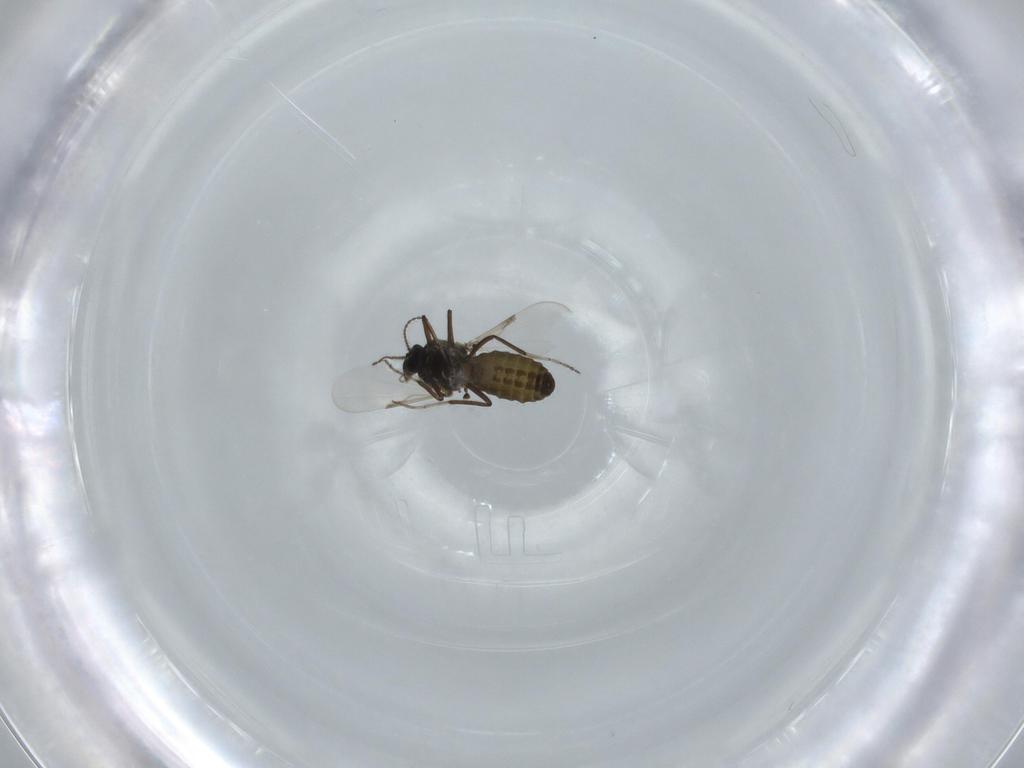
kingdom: Animalia
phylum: Arthropoda
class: Insecta
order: Diptera
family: Ceratopogonidae
